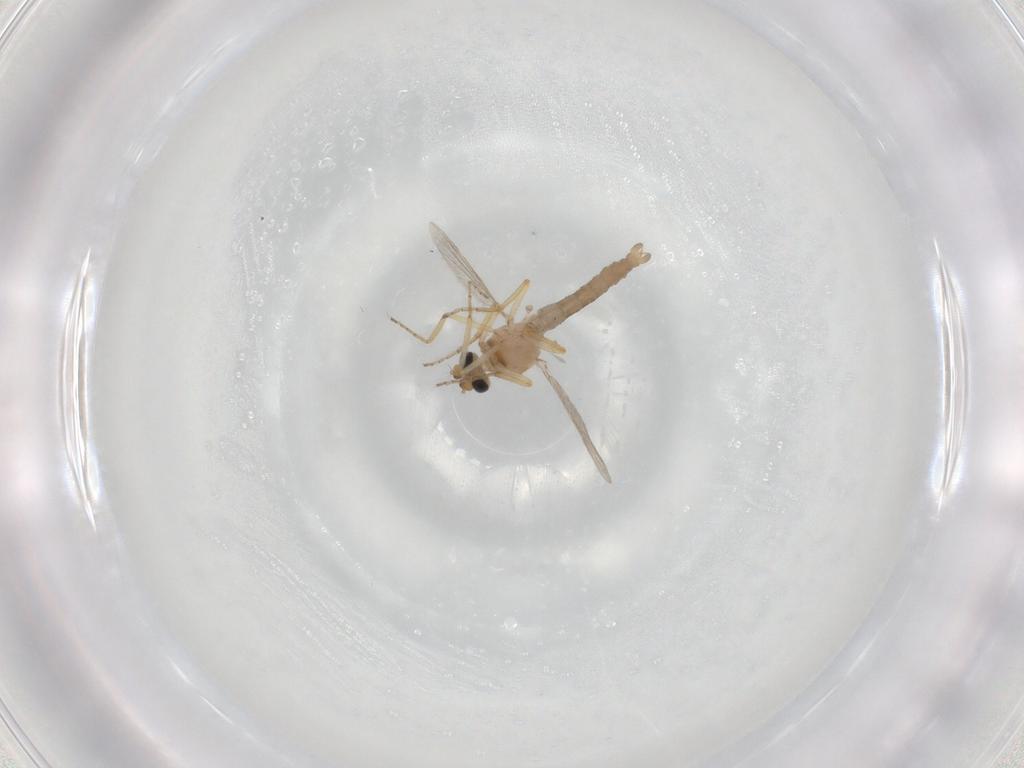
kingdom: Animalia
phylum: Arthropoda
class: Insecta
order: Diptera
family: Ceratopogonidae
